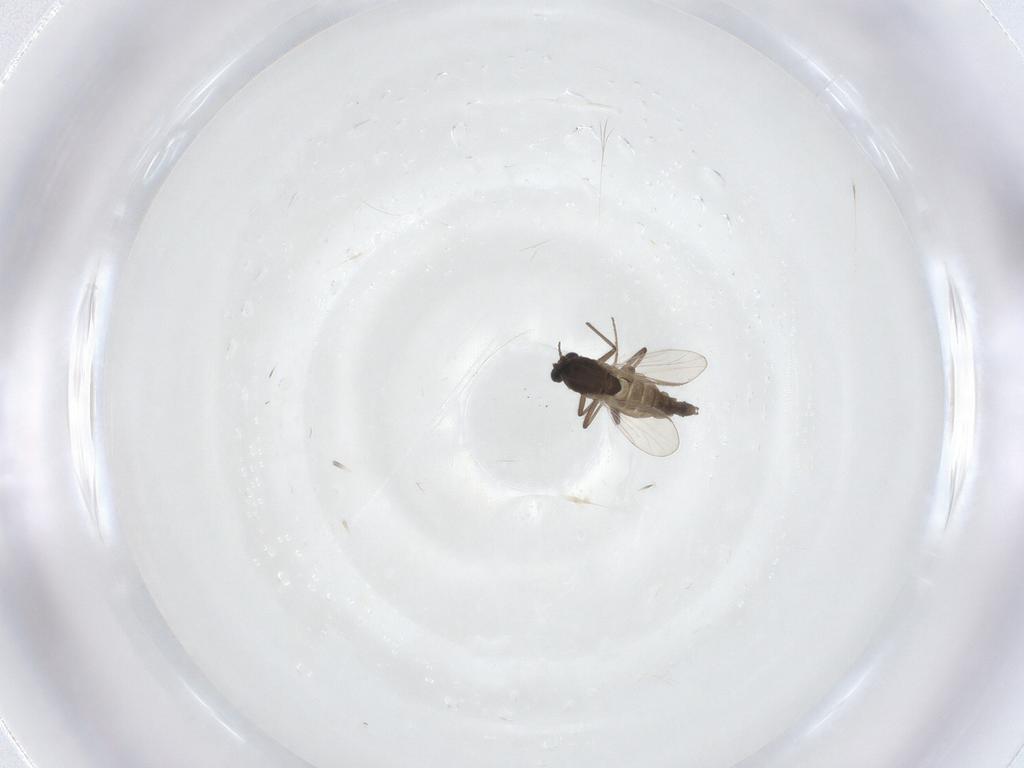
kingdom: Animalia
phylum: Arthropoda
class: Insecta
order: Diptera
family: Chironomidae
